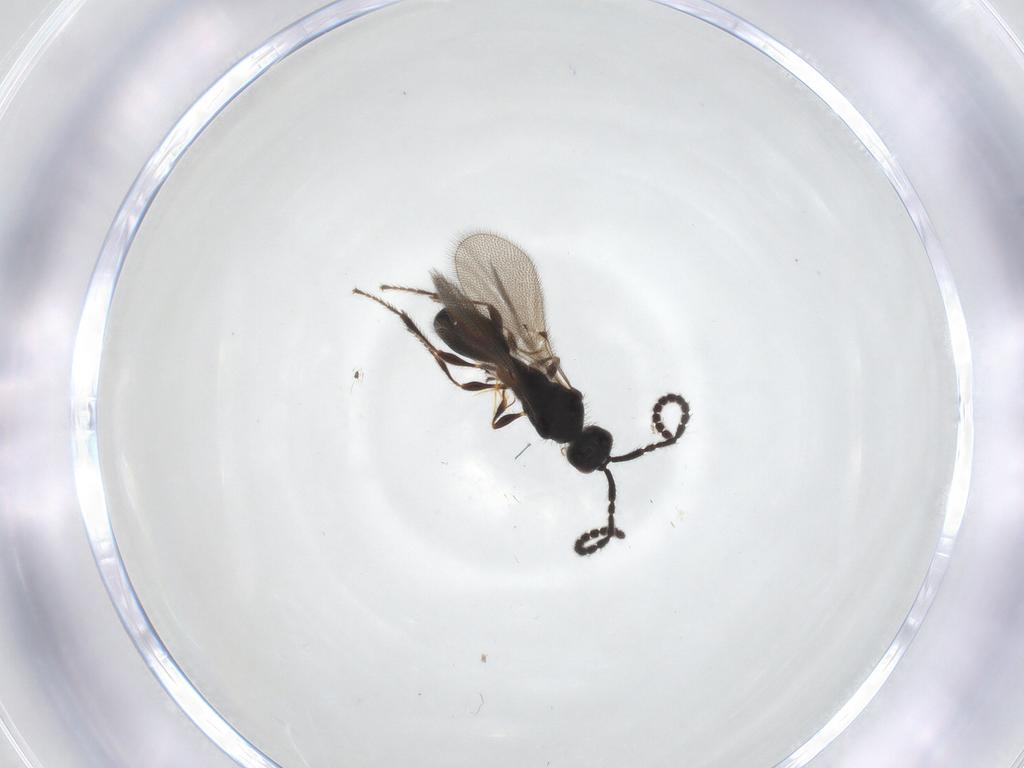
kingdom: Animalia
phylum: Arthropoda
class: Insecta
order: Hymenoptera
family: Diapriidae
